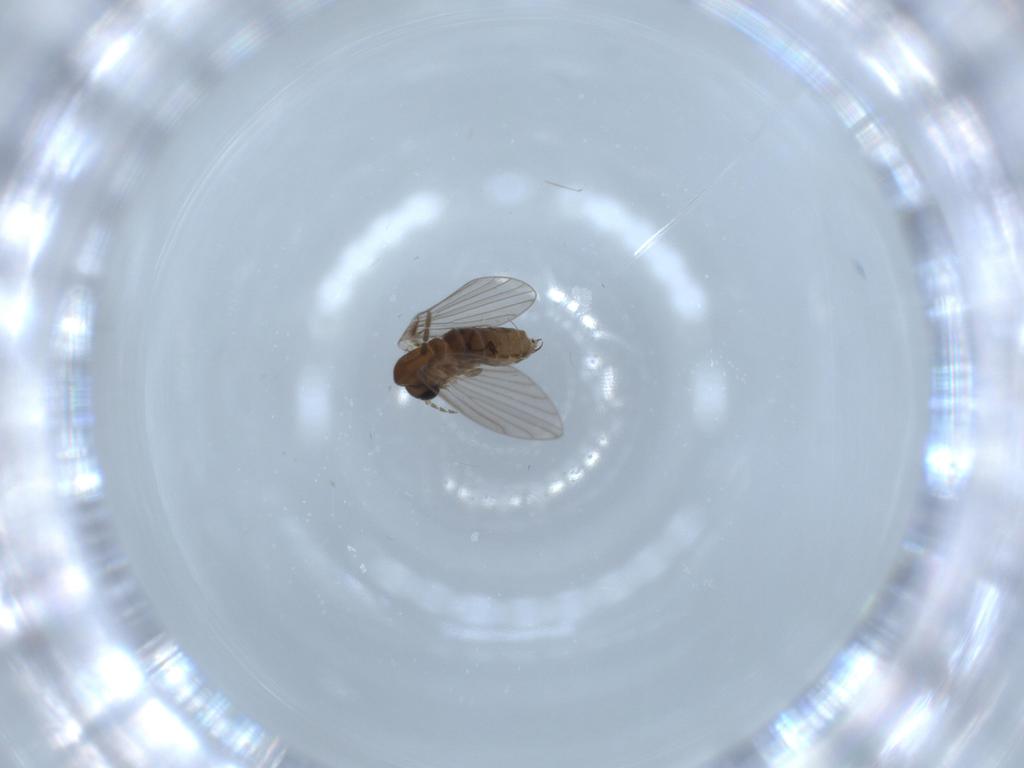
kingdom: Animalia
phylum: Arthropoda
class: Insecta
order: Diptera
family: Sciaridae
